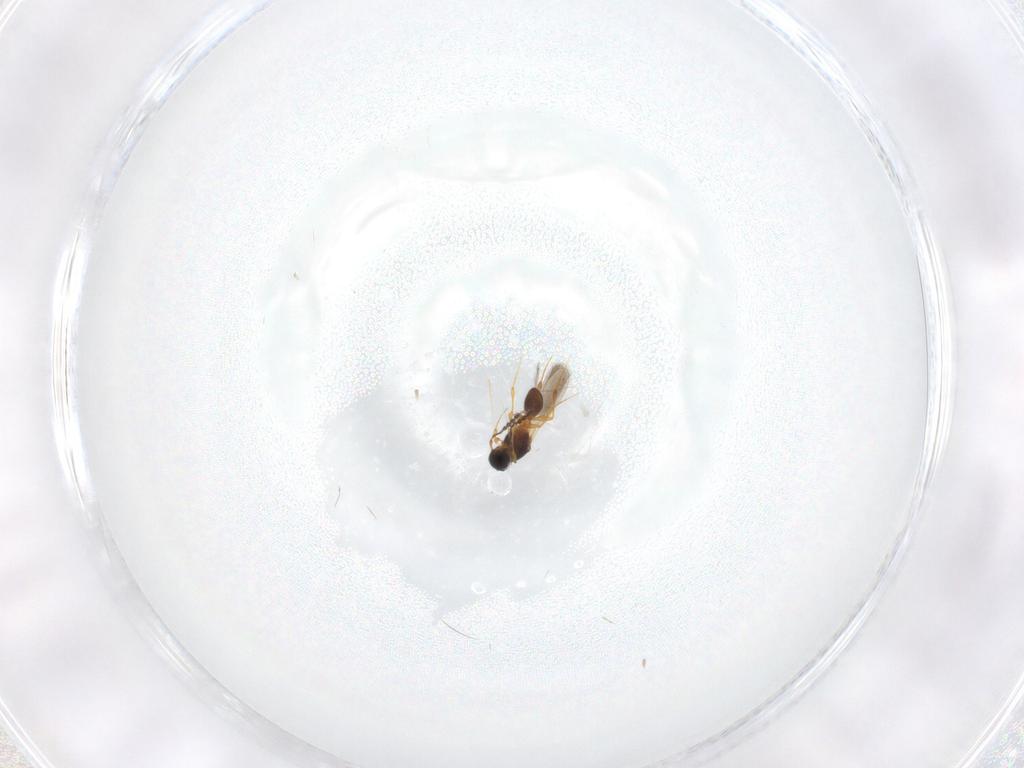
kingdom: Animalia
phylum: Arthropoda
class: Insecta
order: Hymenoptera
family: Platygastridae
